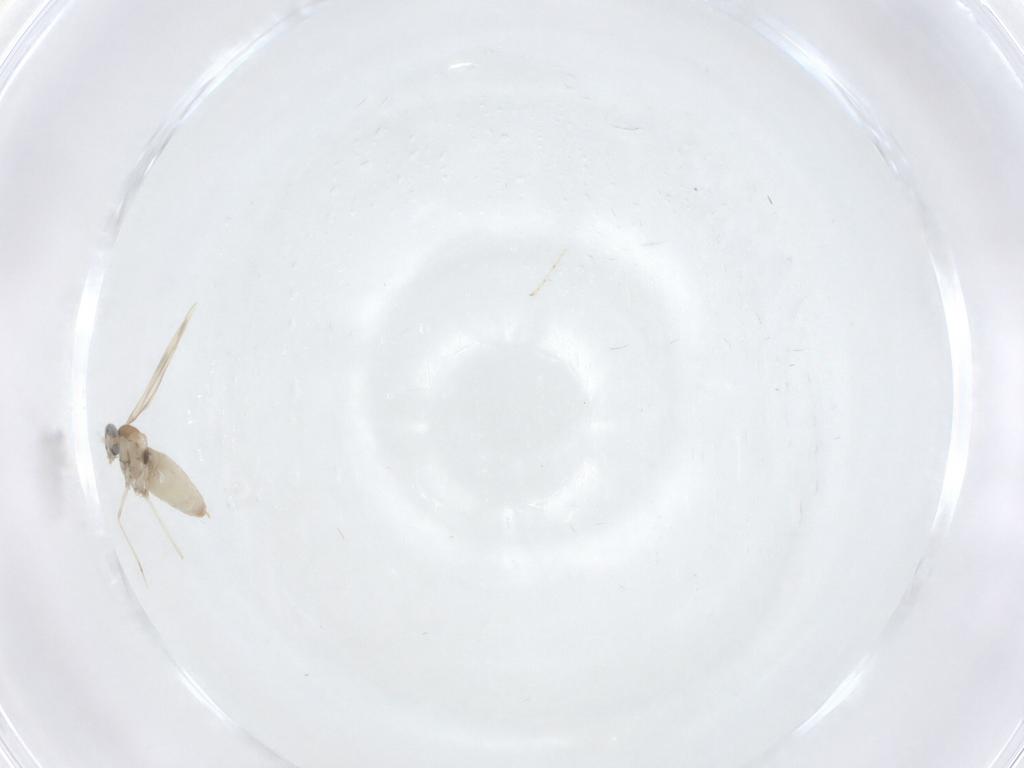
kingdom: Animalia
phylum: Arthropoda
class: Insecta
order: Diptera
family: Cecidomyiidae
